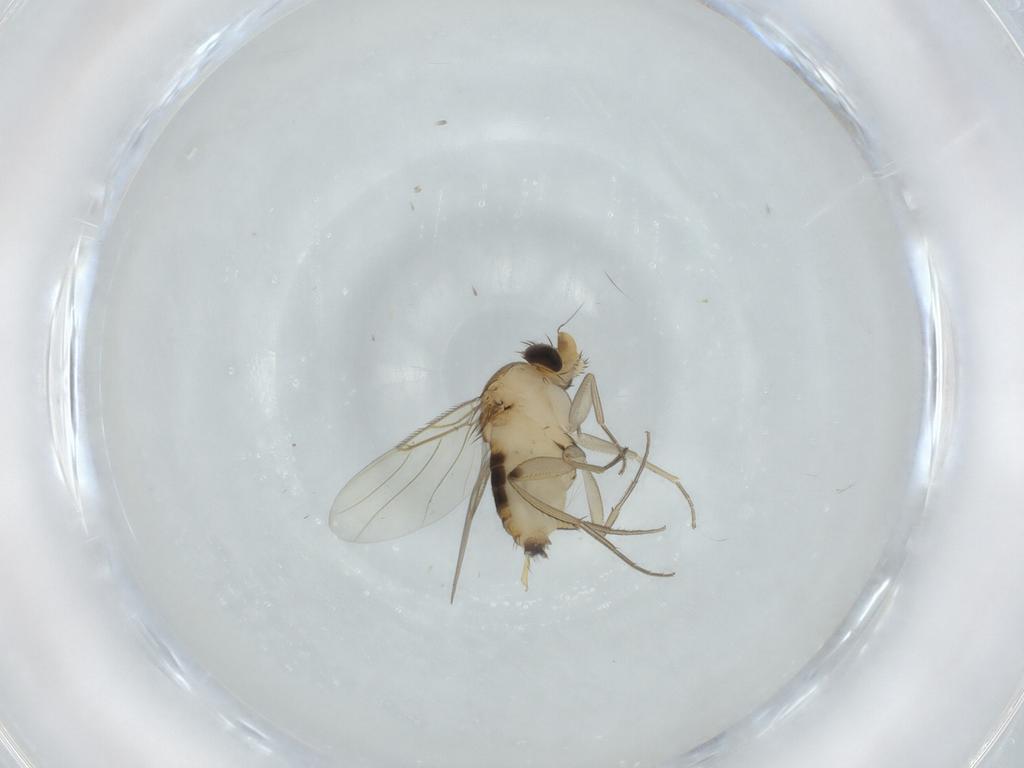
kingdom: Animalia
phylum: Arthropoda
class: Insecta
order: Diptera
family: Phoridae
